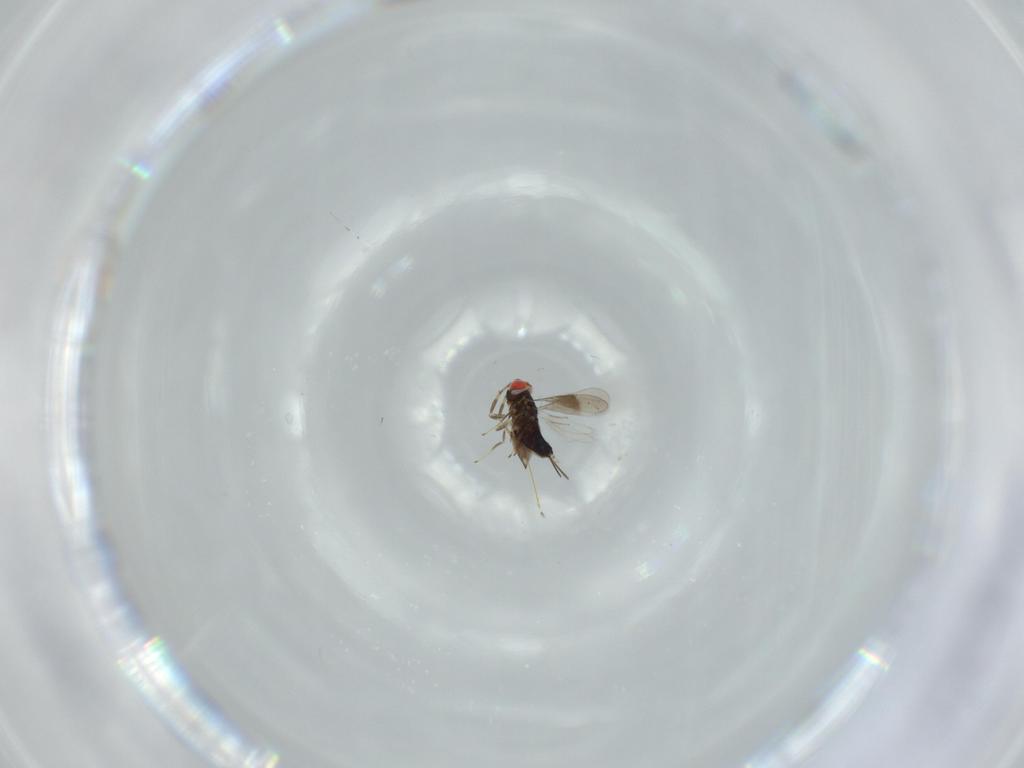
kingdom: Animalia
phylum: Arthropoda
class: Insecta
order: Hymenoptera
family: Azotidae
